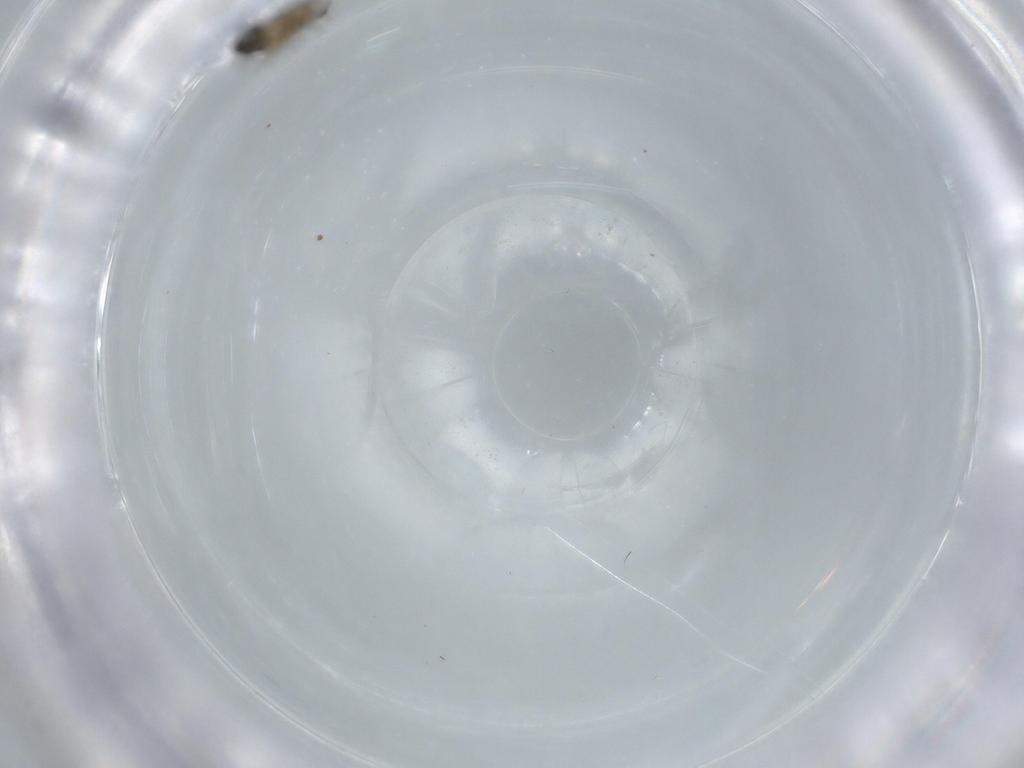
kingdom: Animalia
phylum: Arthropoda
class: Insecta
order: Diptera
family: Cecidomyiidae
